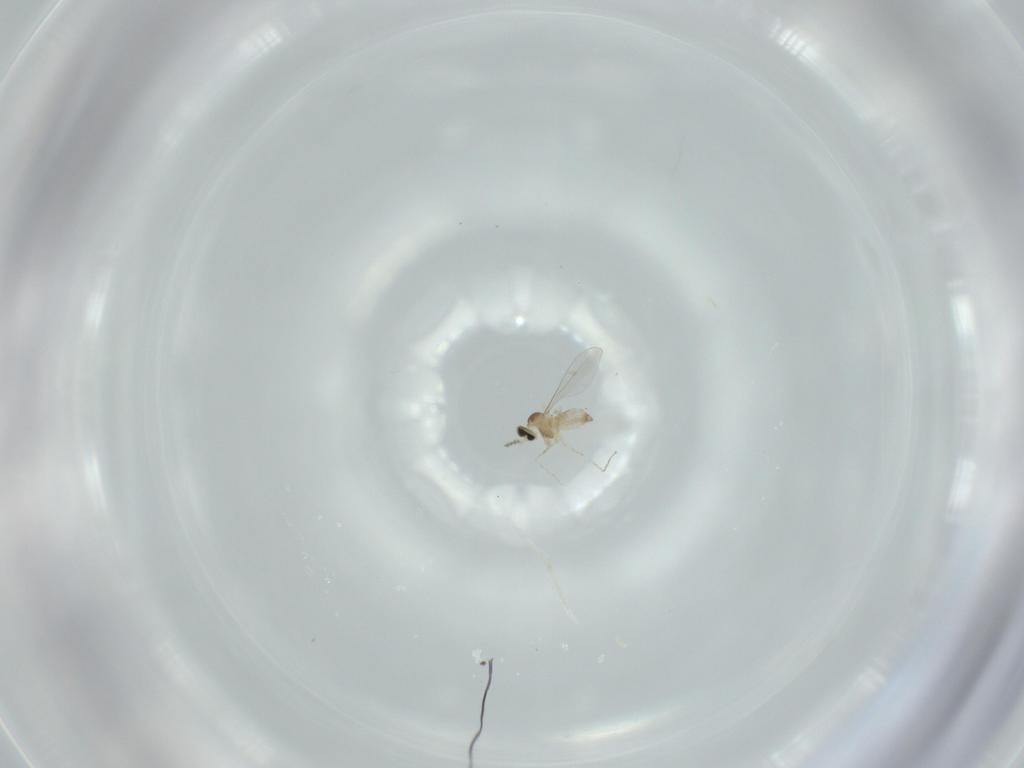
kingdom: Animalia
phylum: Arthropoda
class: Insecta
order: Diptera
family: Cecidomyiidae
